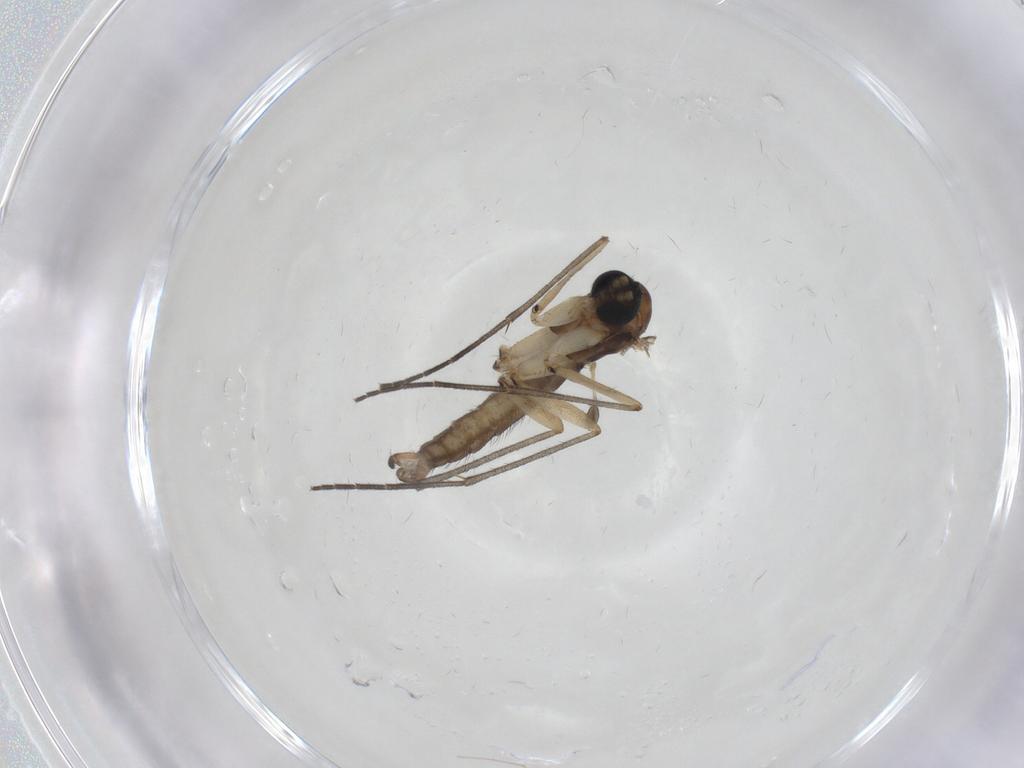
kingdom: Animalia
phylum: Arthropoda
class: Insecta
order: Diptera
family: Sciaridae
